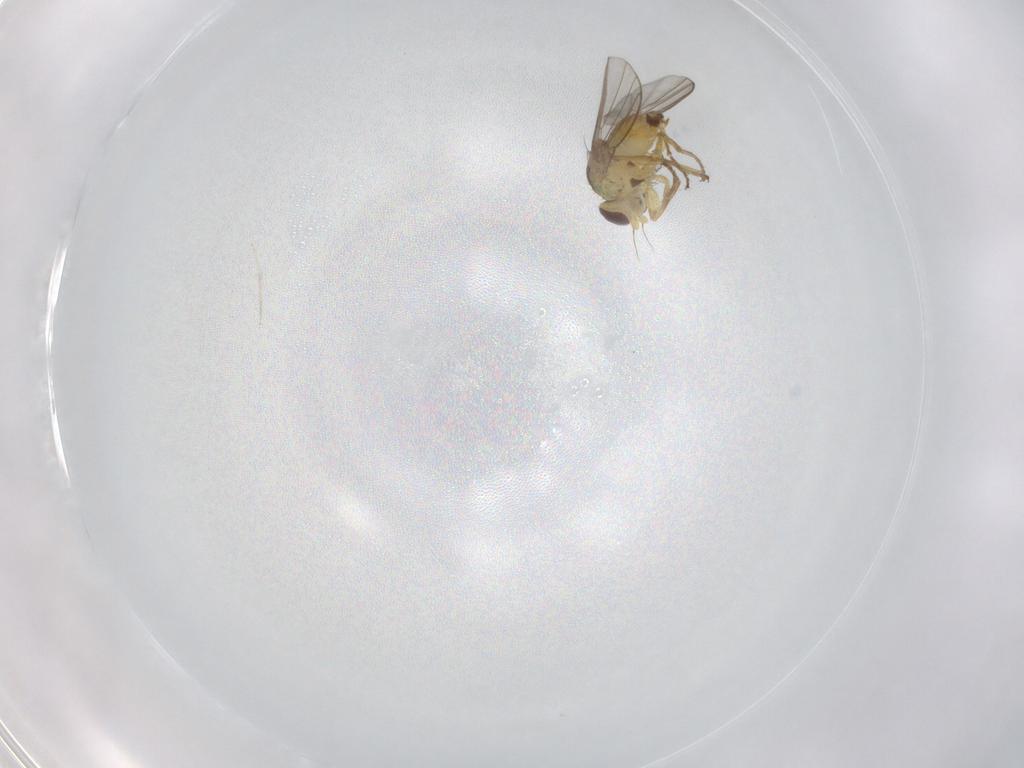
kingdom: Animalia
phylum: Arthropoda
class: Insecta
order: Diptera
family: Agromyzidae
